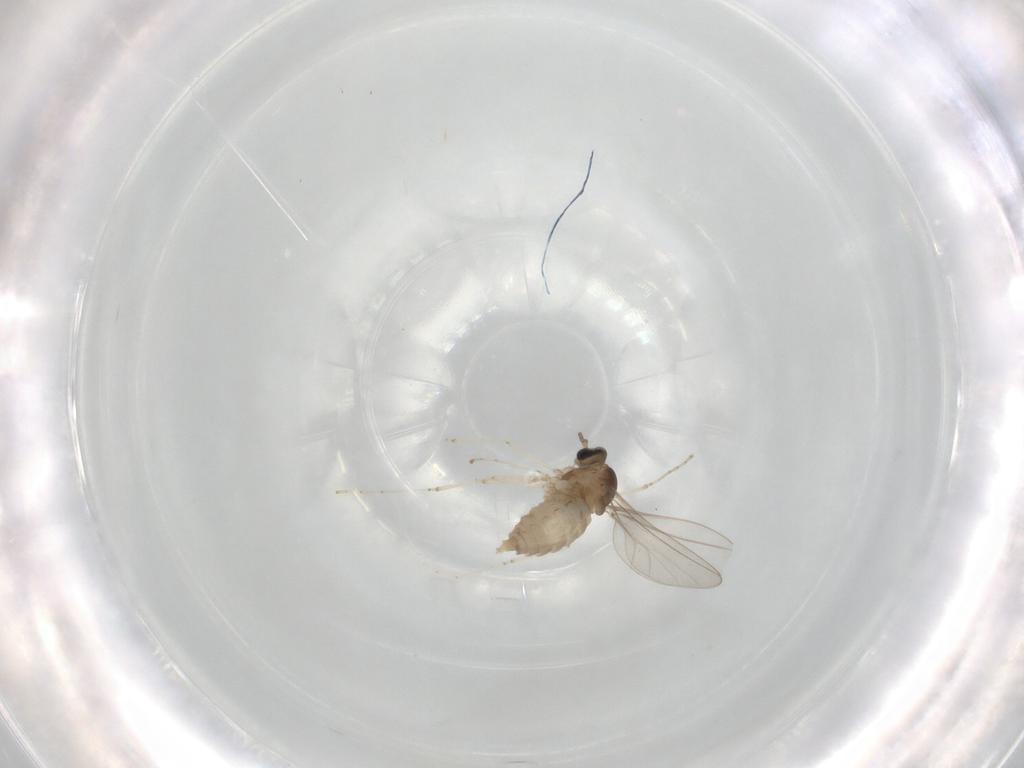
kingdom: Animalia
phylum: Arthropoda
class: Insecta
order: Diptera
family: Cecidomyiidae
